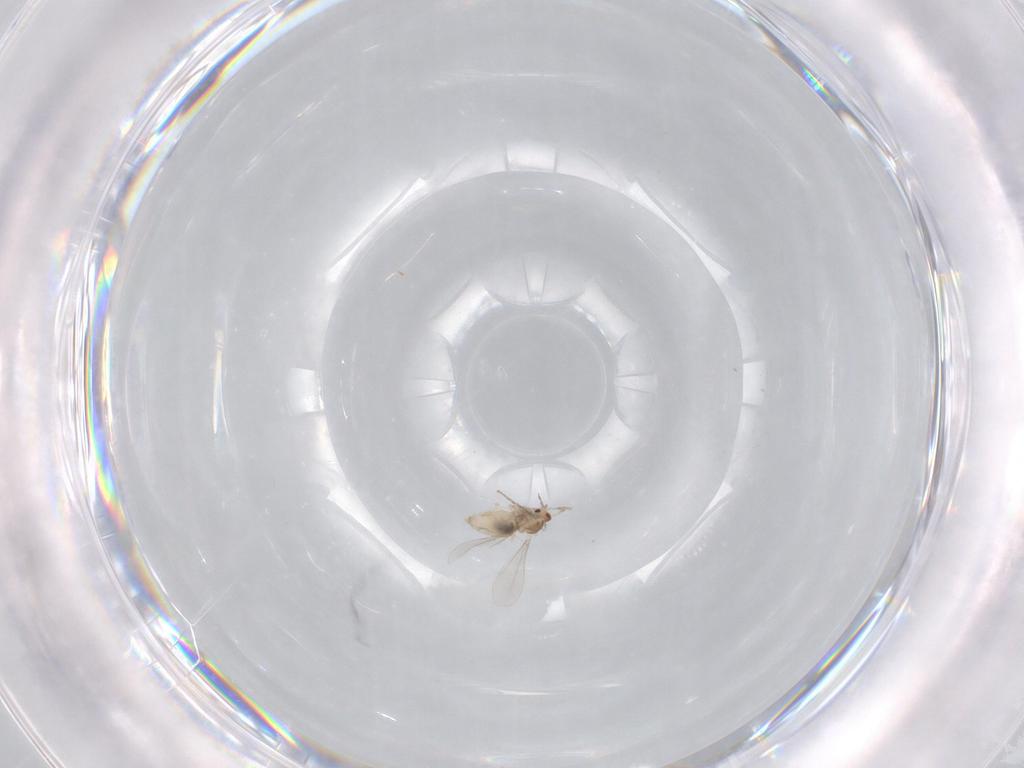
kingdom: Animalia
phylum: Arthropoda
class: Insecta
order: Diptera
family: Cecidomyiidae
